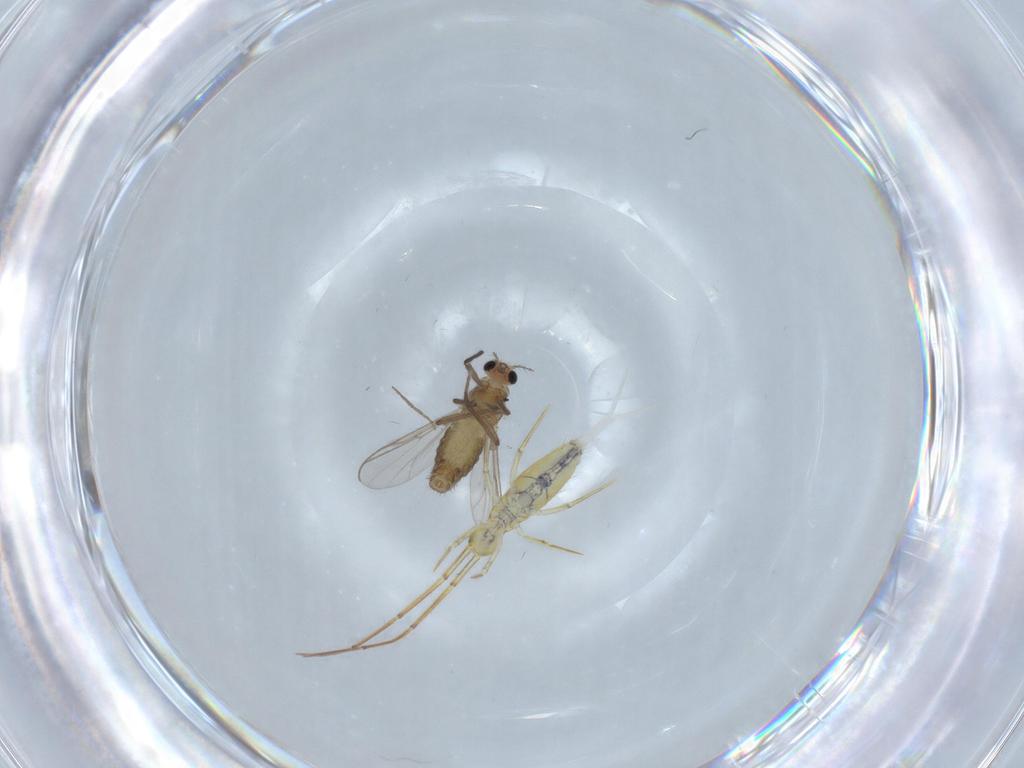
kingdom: Animalia
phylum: Arthropoda
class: Insecta
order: Diptera
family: Chironomidae
